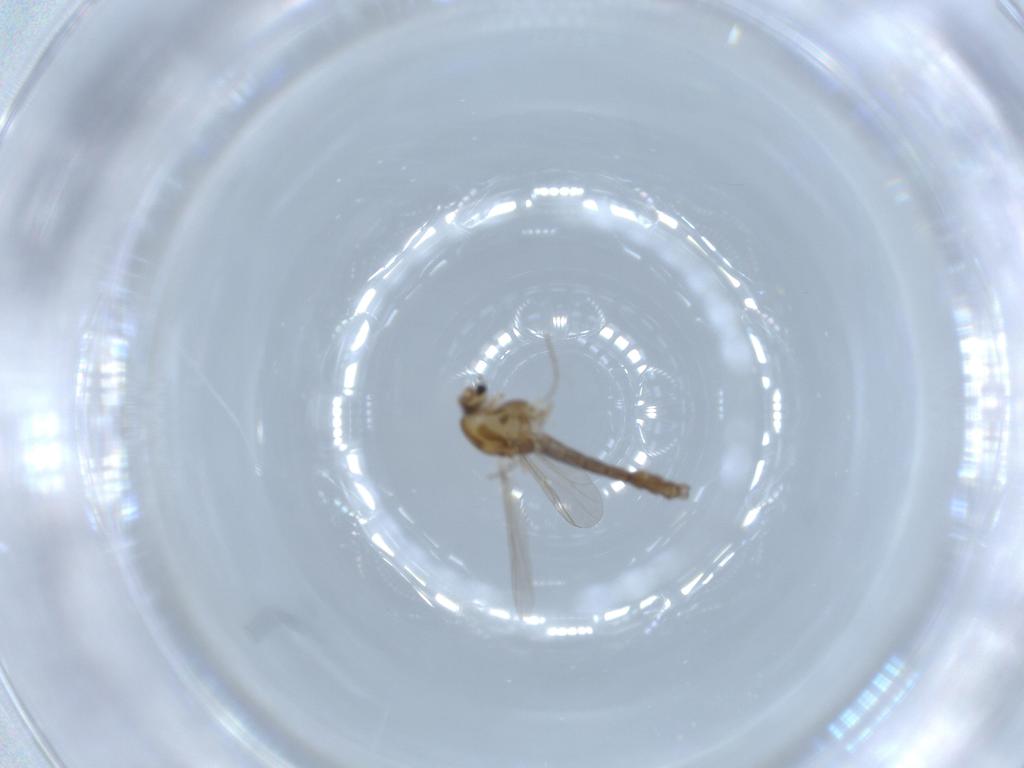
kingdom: Animalia
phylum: Arthropoda
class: Insecta
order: Diptera
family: Chironomidae
